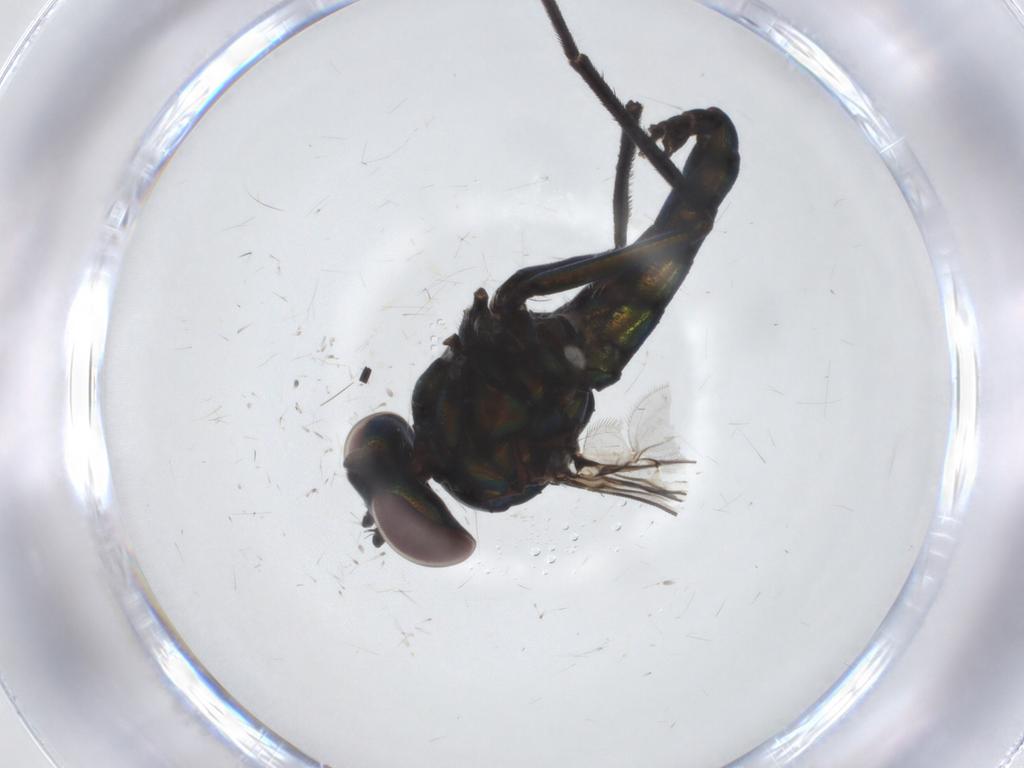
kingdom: Animalia
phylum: Arthropoda
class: Insecta
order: Diptera
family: Dolichopodidae
